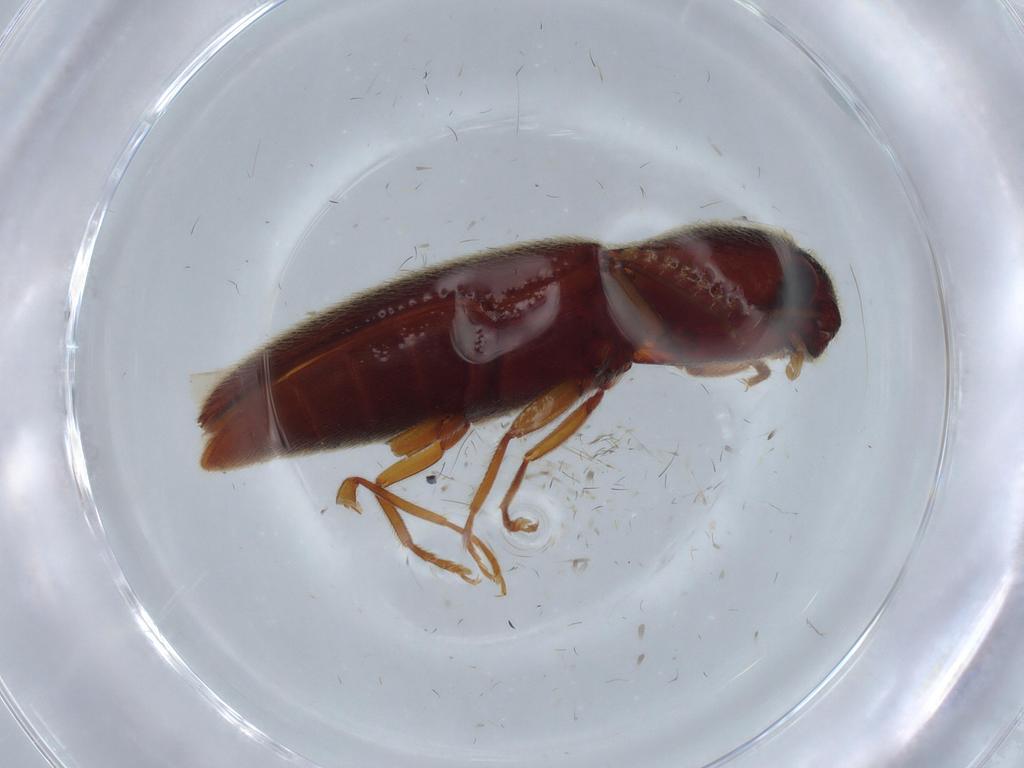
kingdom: Animalia
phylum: Arthropoda
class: Insecta
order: Coleoptera
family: Elateridae
